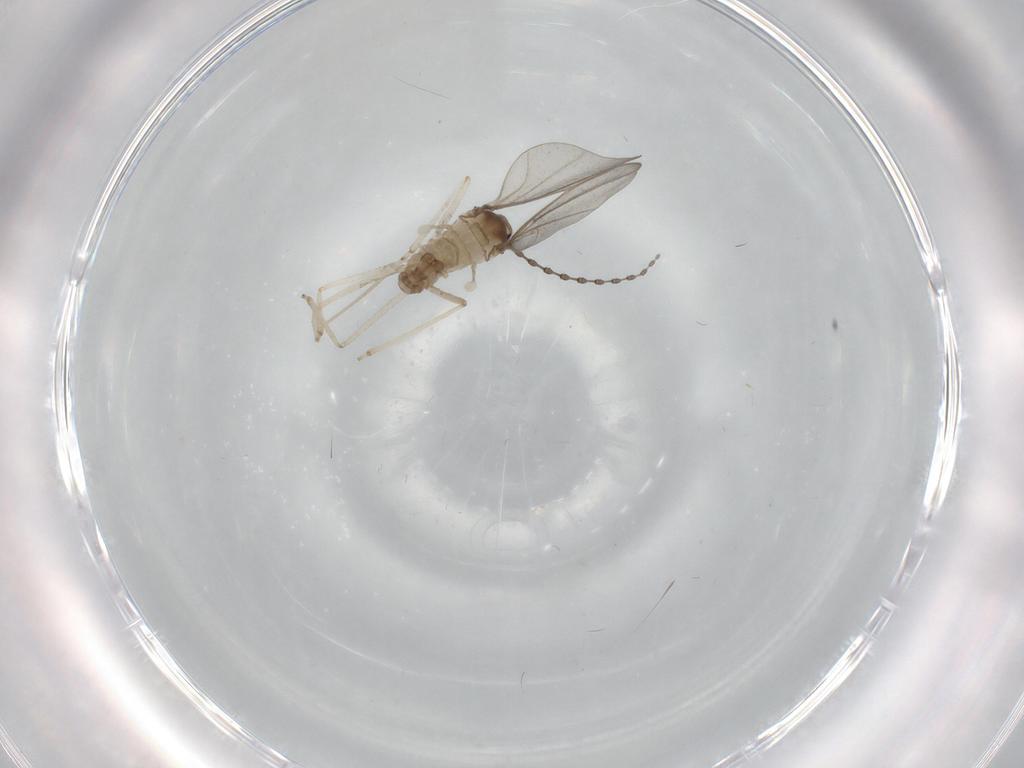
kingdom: Animalia
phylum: Arthropoda
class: Insecta
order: Diptera
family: Cecidomyiidae
